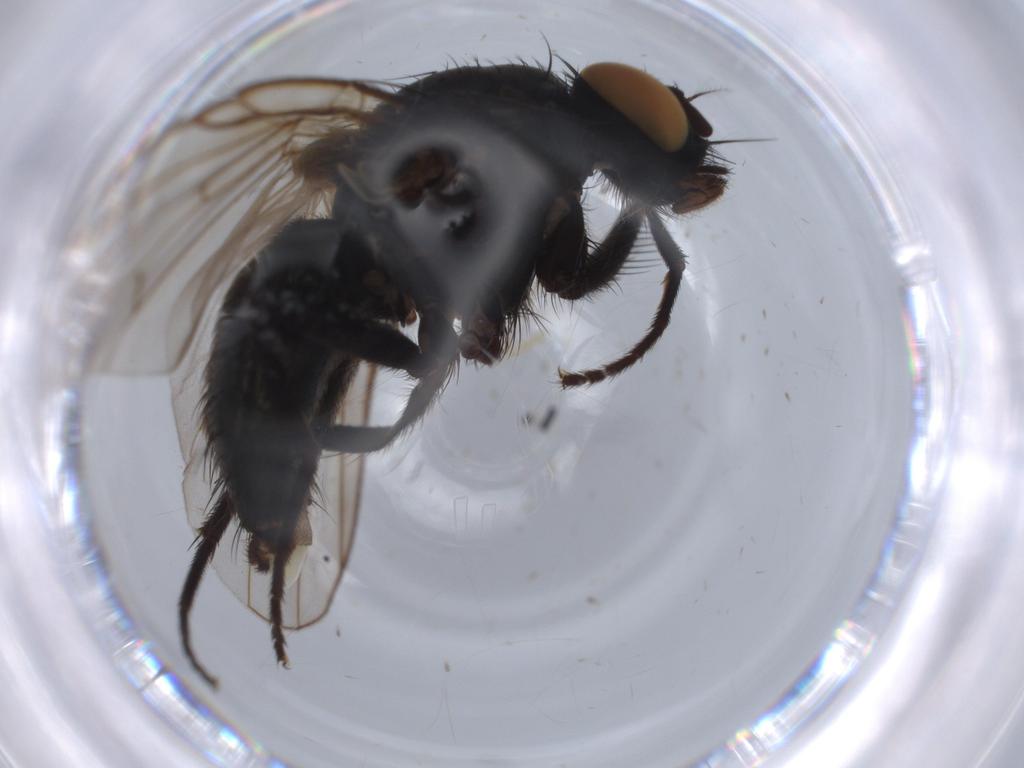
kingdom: Animalia
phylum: Arthropoda
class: Insecta
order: Diptera
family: Muscidae
